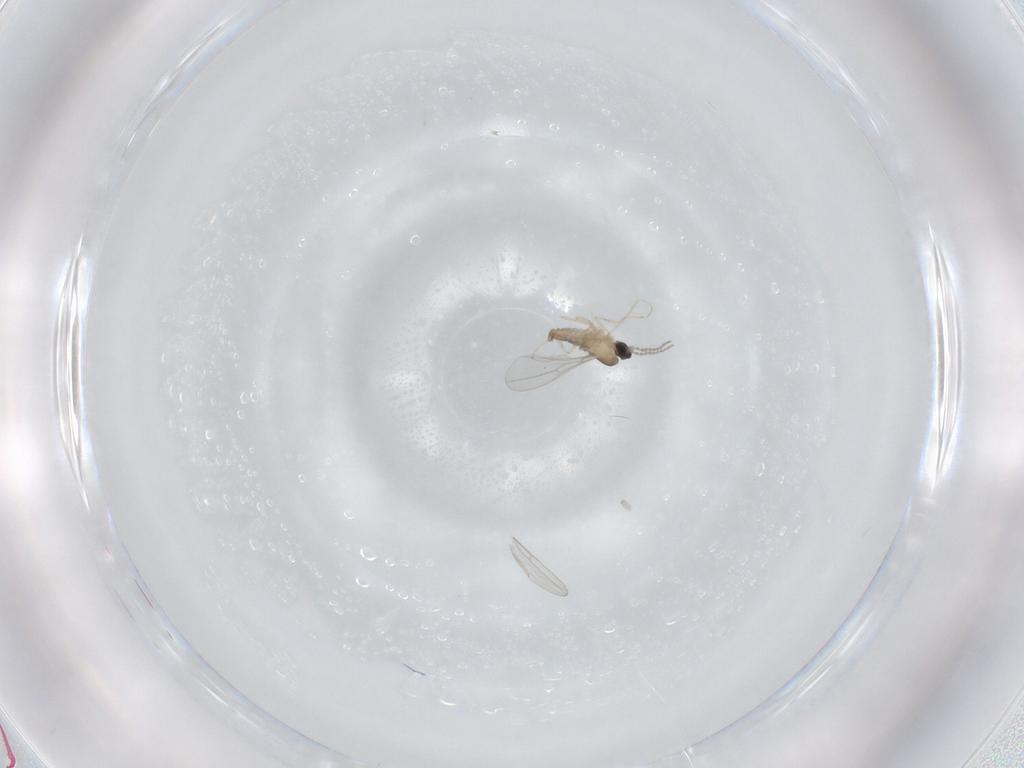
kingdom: Animalia
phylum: Arthropoda
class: Insecta
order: Diptera
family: Cecidomyiidae
